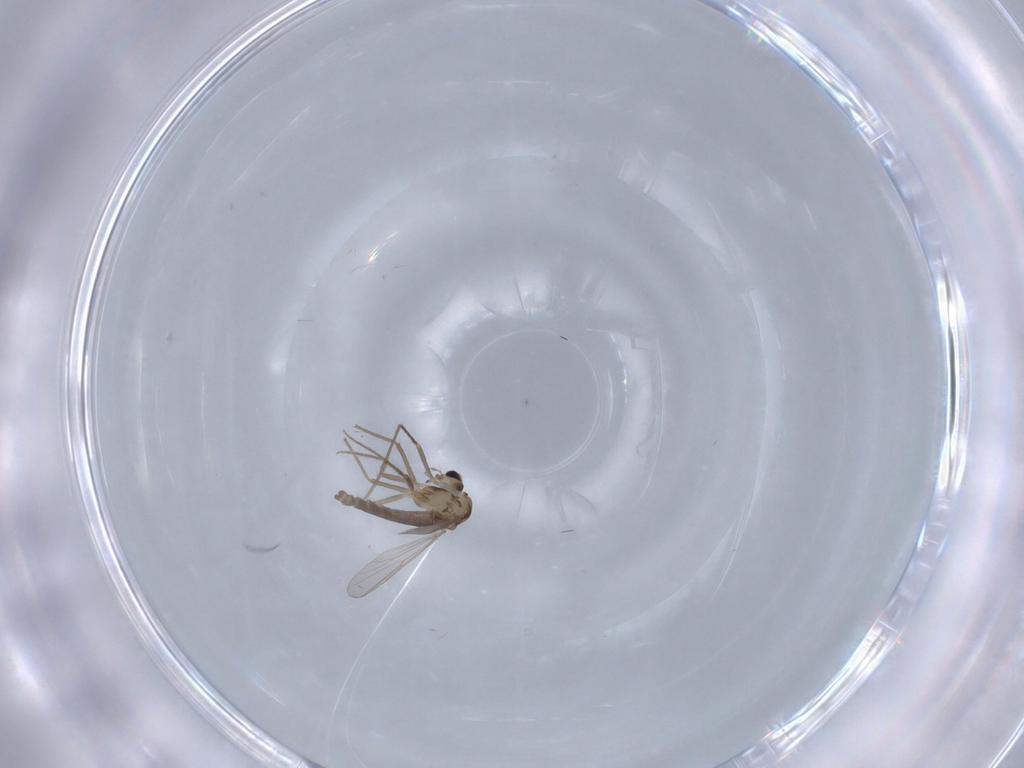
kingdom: Animalia
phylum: Arthropoda
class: Insecta
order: Diptera
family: Chironomidae
